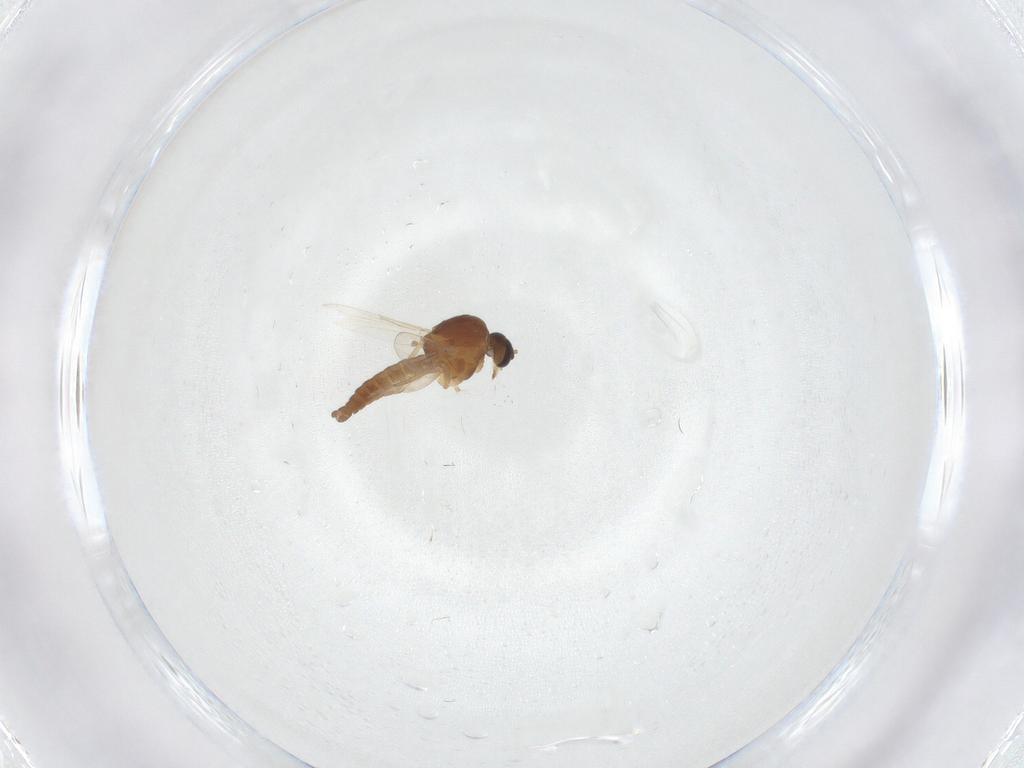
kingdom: Animalia
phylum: Arthropoda
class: Insecta
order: Diptera
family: Ceratopogonidae
